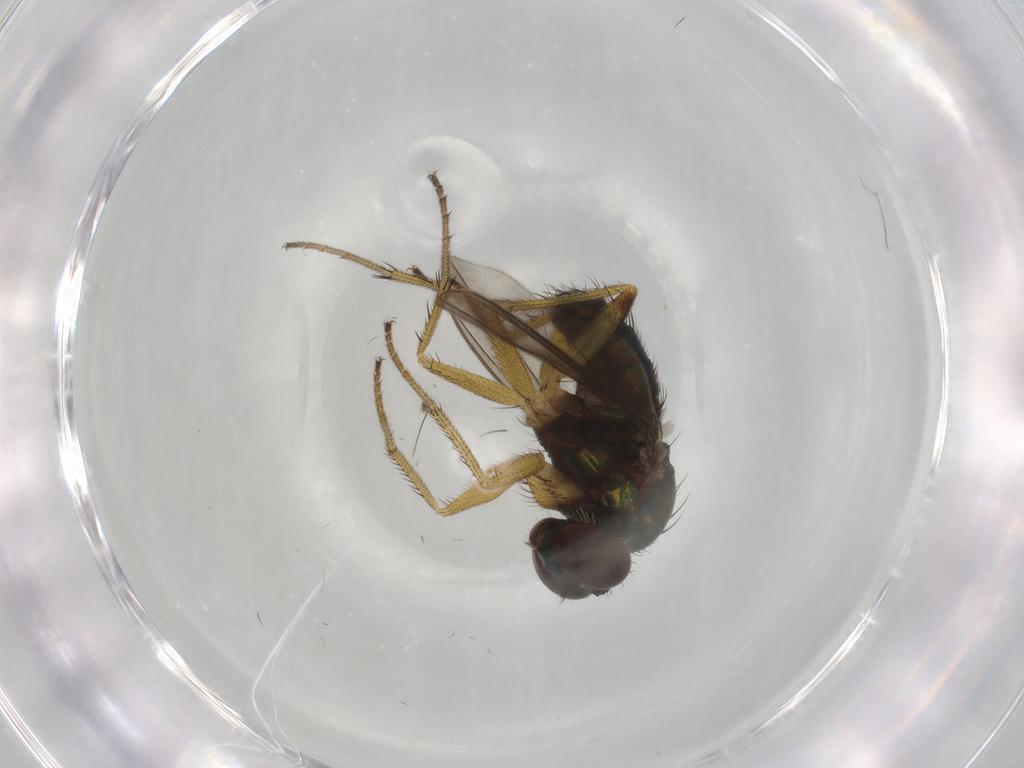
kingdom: Animalia
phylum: Arthropoda
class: Insecta
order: Diptera
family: Dolichopodidae
